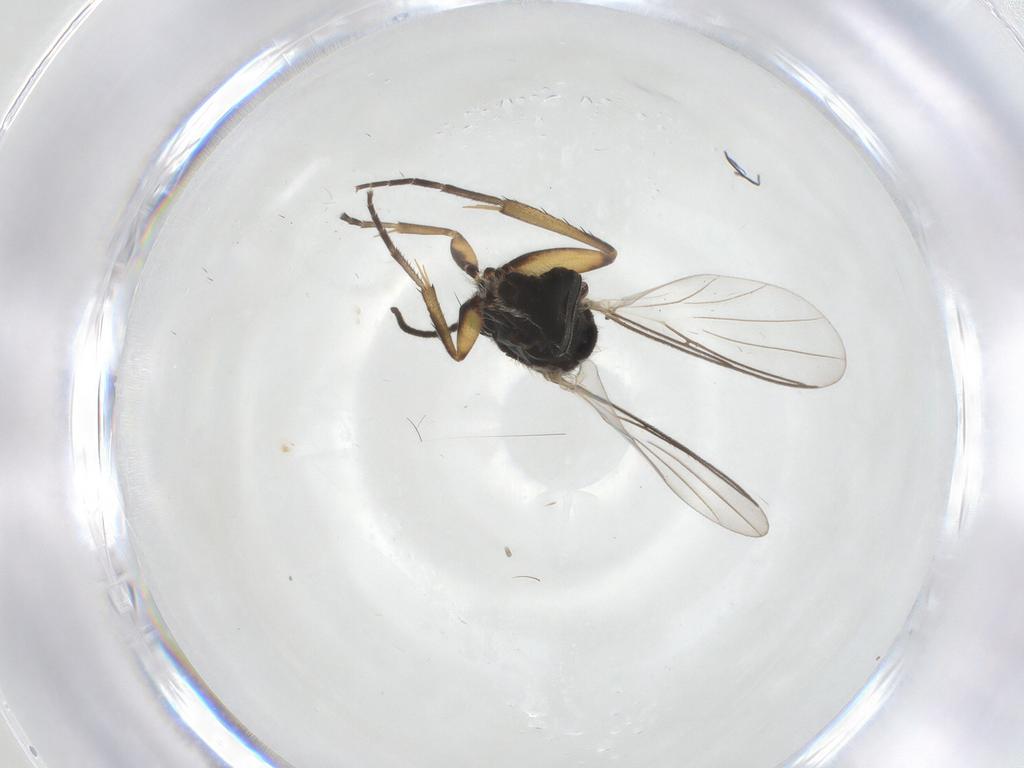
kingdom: Animalia
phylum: Arthropoda
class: Insecta
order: Diptera
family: Mycetophilidae
